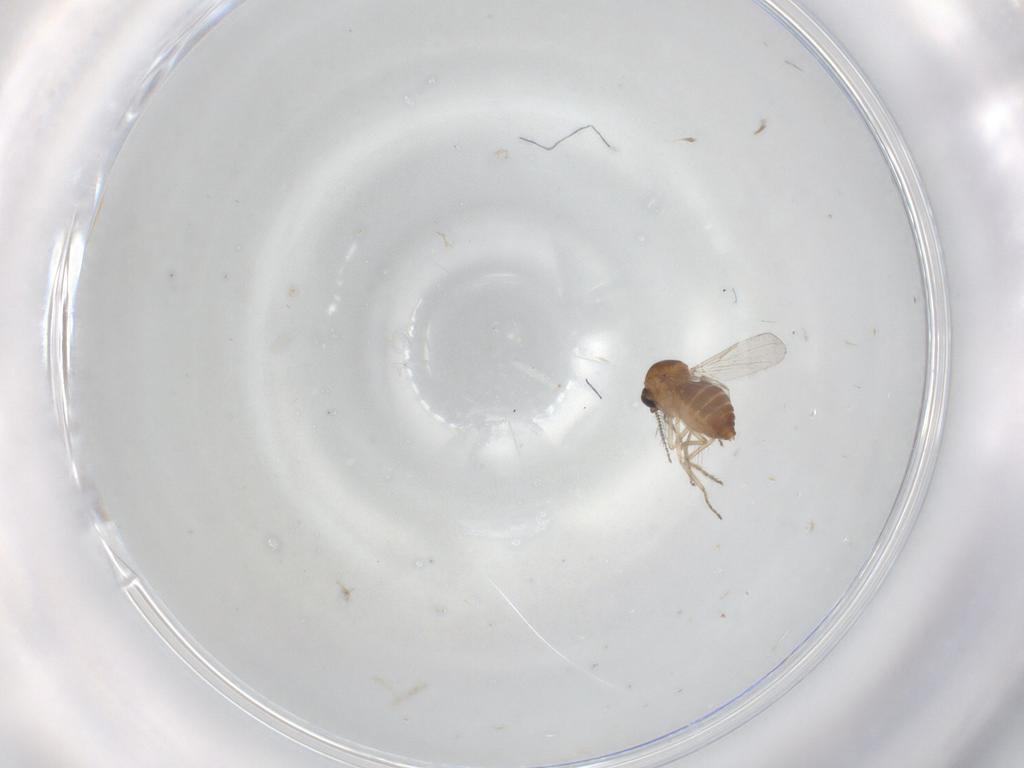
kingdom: Animalia
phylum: Arthropoda
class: Insecta
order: Diptera
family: Ceratopogonidae
